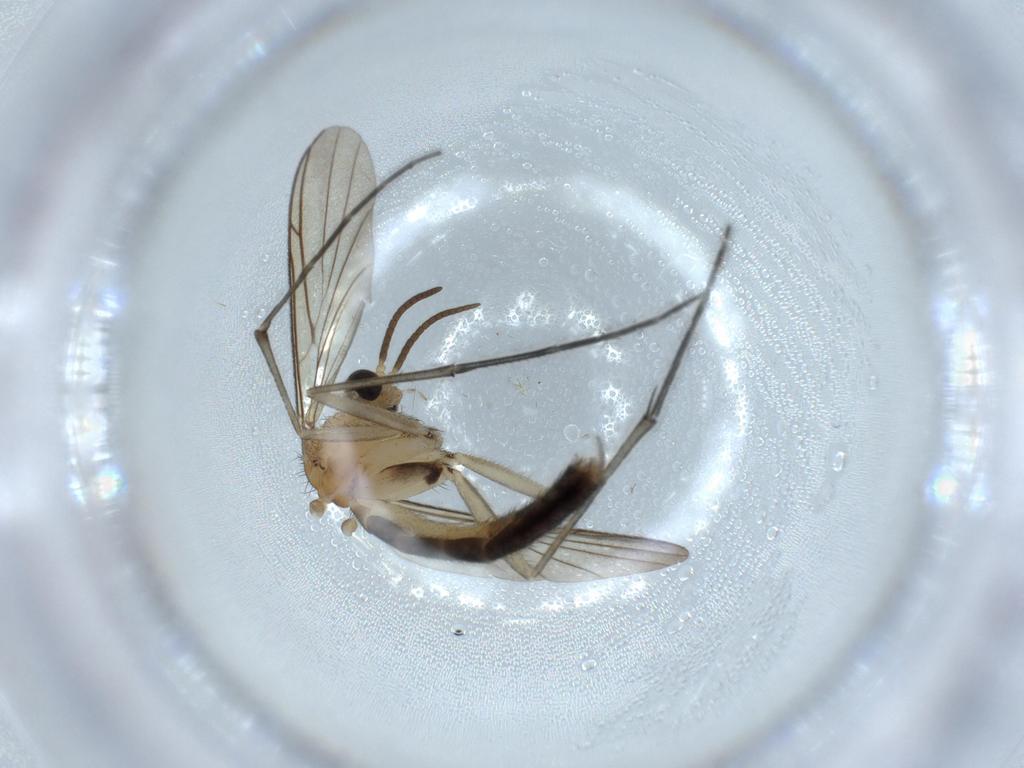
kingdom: Animalia
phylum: Arthropoda
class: Insecta
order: Diptera
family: Keroplatidae
